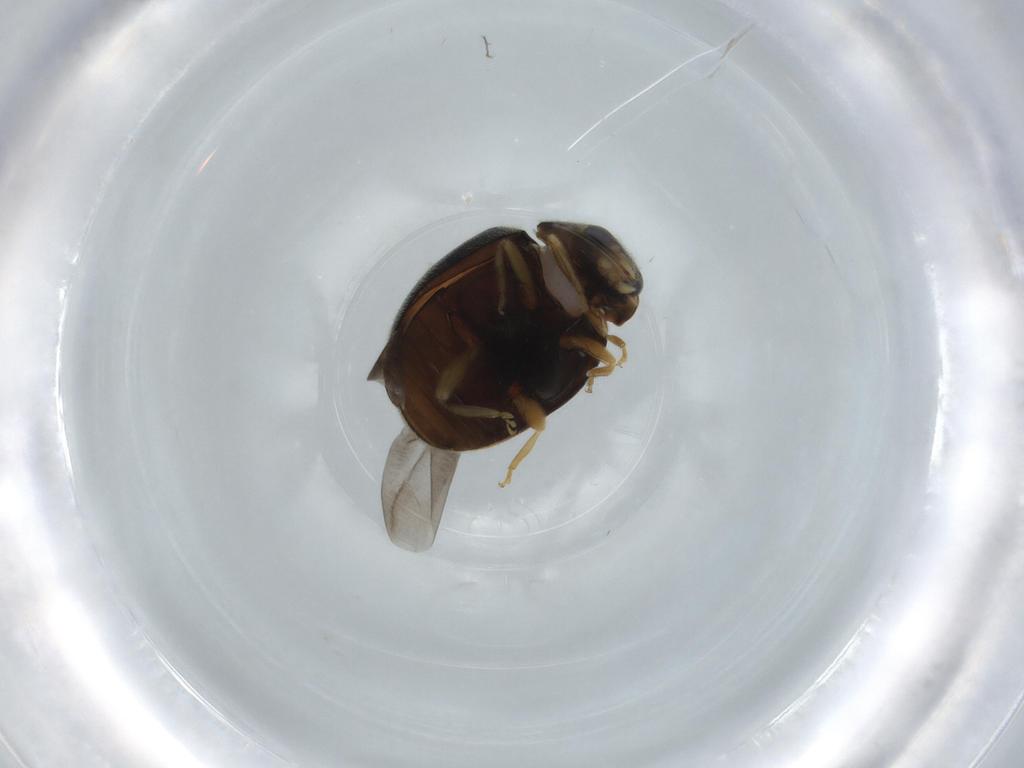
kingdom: Animalia
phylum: Arthropoda
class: Insecta
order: Coleoptera
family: Coccinellidae
